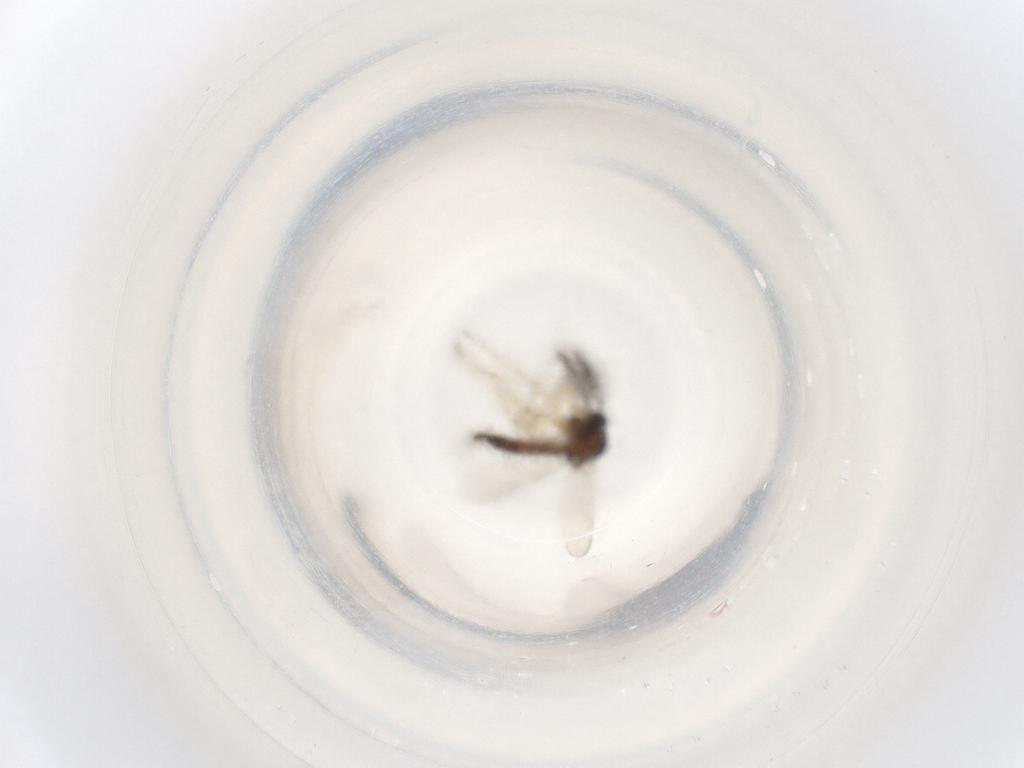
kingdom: Animalia
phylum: Arthropoda
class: Insecta
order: Diptera
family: Ceratopogonidae
